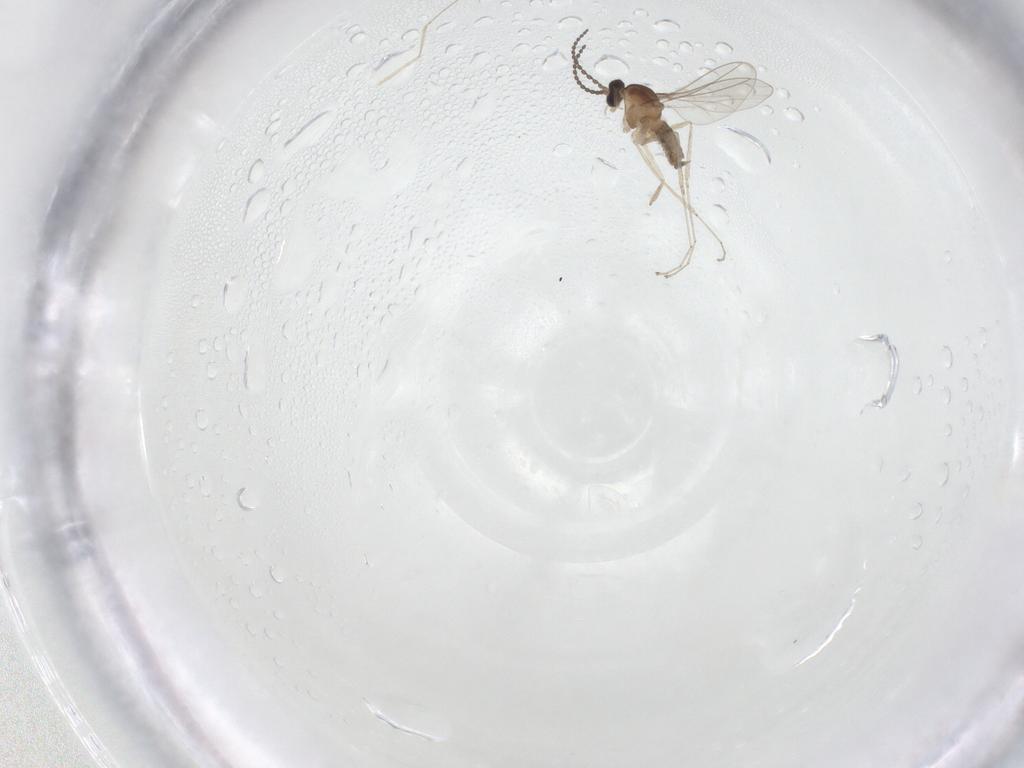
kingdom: Animalia
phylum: Arthropoda
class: Insecta
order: Diptera
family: Cecidomyiidae
